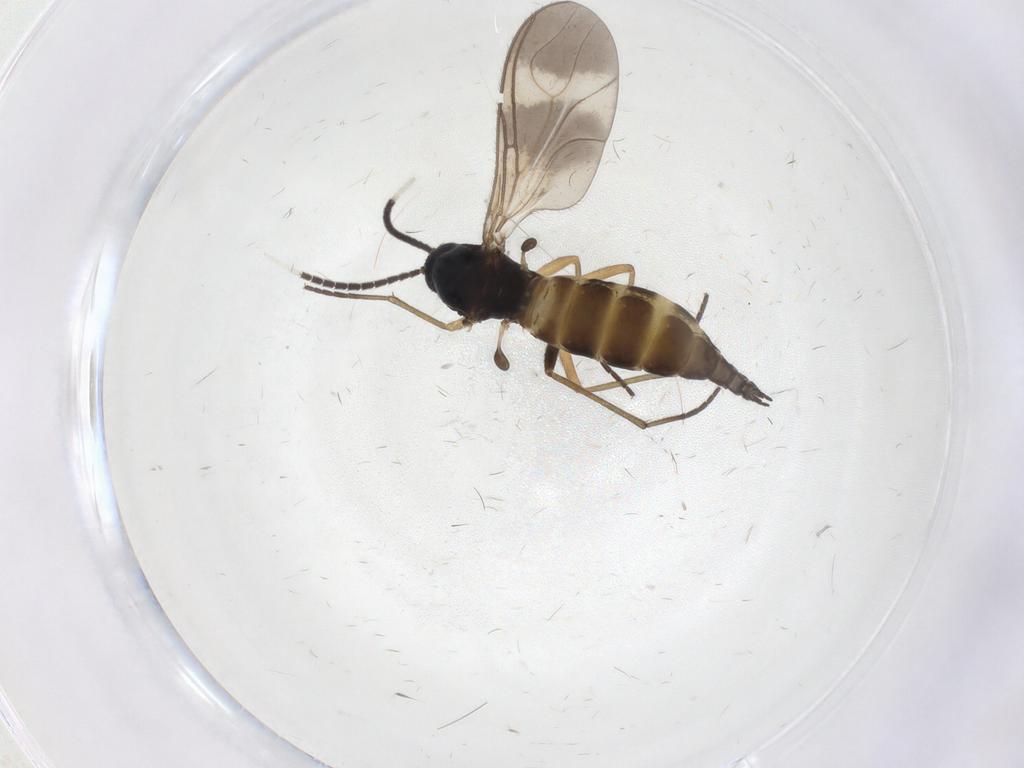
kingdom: Animalia
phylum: Arthropoda
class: Insecta
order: Diptera
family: Sciaridae
